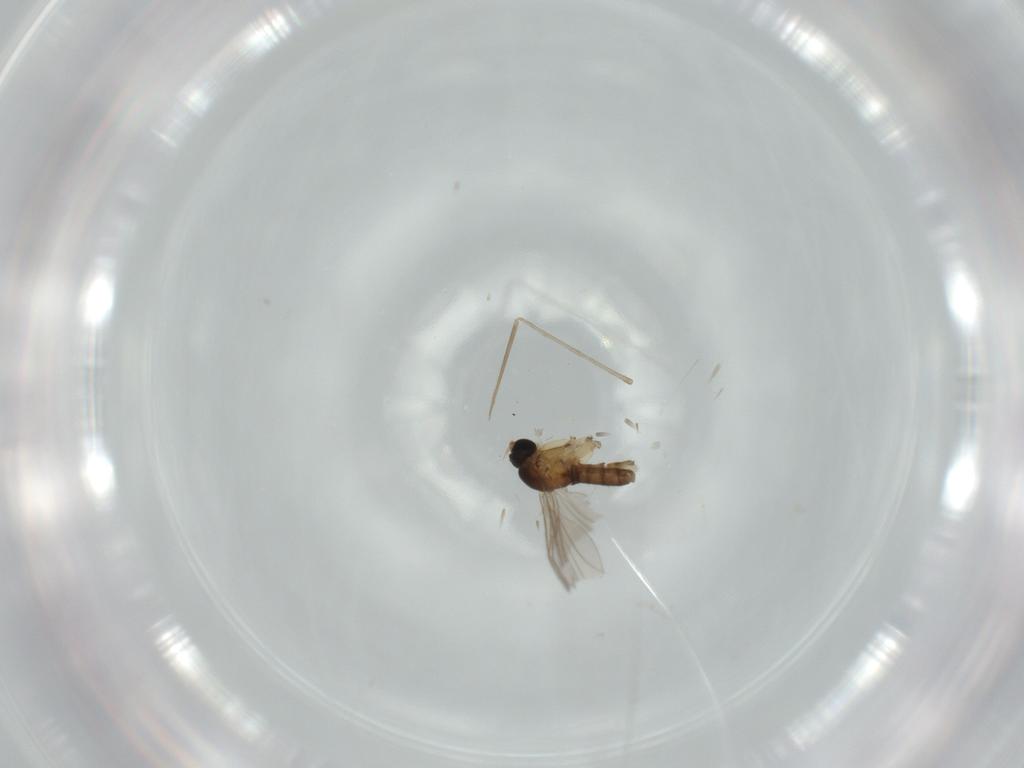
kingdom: Animalia
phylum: Arthropoda
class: Insecta
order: Diptera
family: Sciaridae
